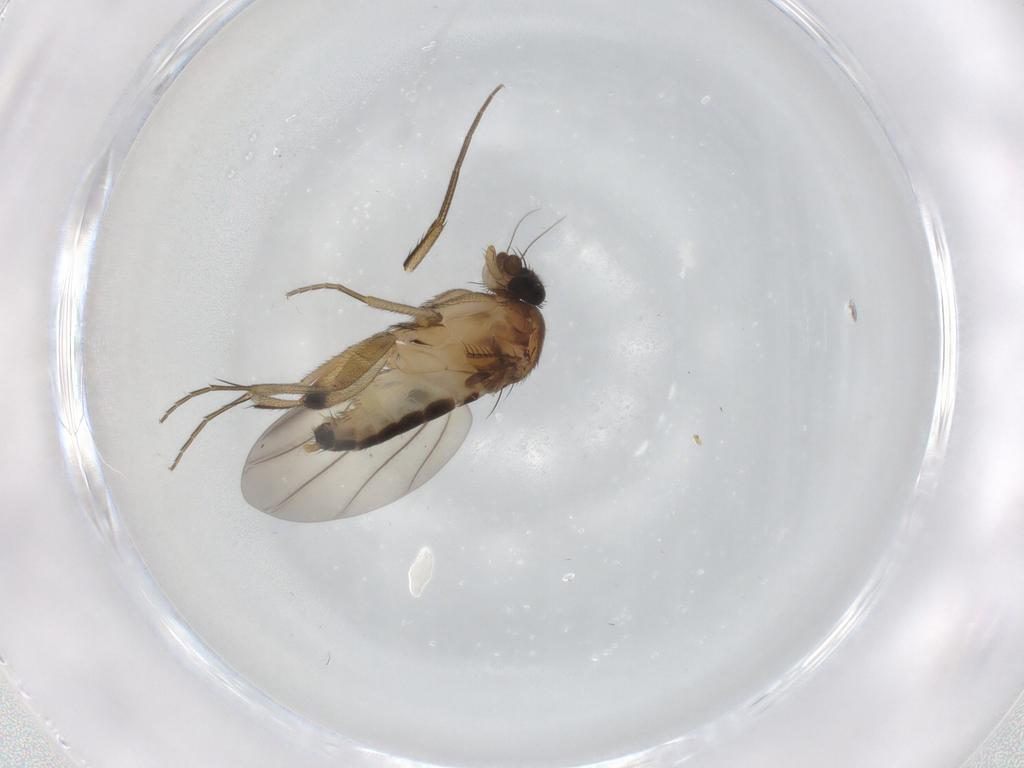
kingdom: Animalia
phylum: Arthropoda
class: Insecta
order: Diptera
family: Phoridae
